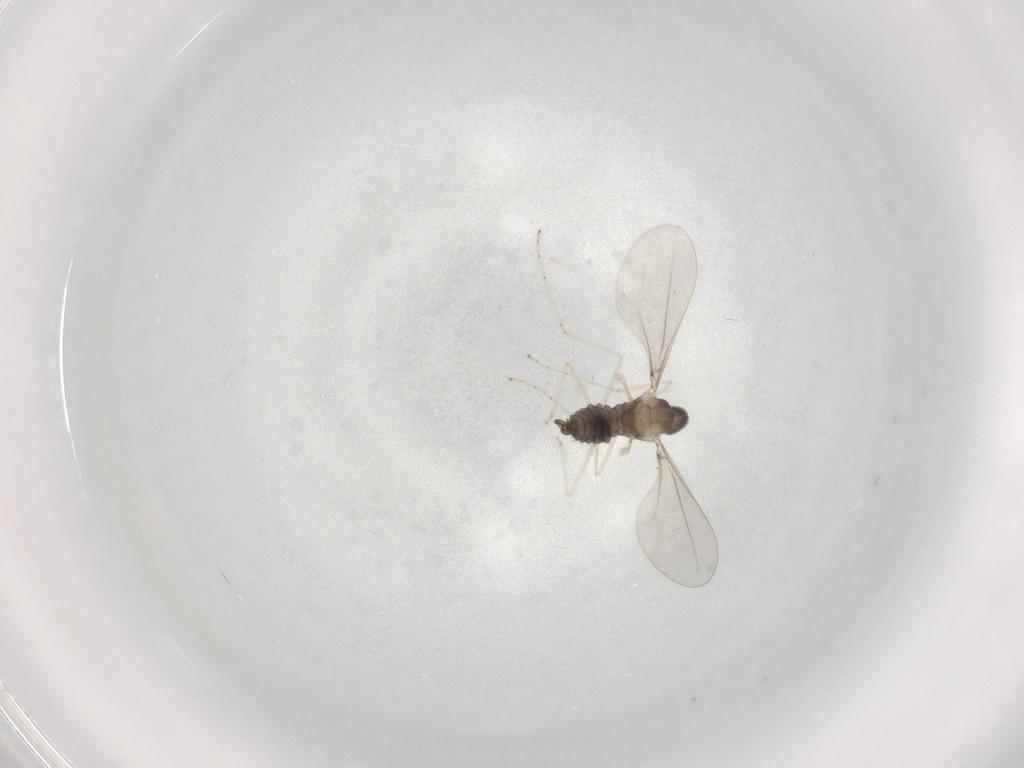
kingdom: Animalia
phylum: Arthropoda
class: Insecta
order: Diptera
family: Cecidomyiidae
